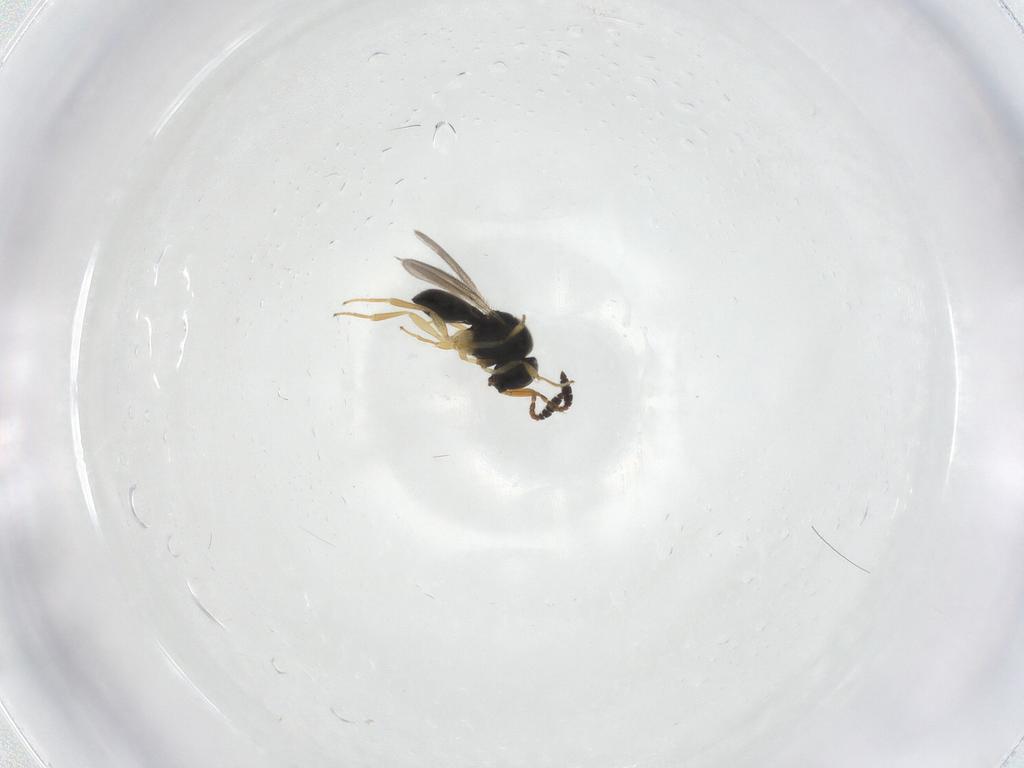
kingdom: Animalia
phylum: Arthropoda
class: Insecta
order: Hymenoptera
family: Scelionidae
